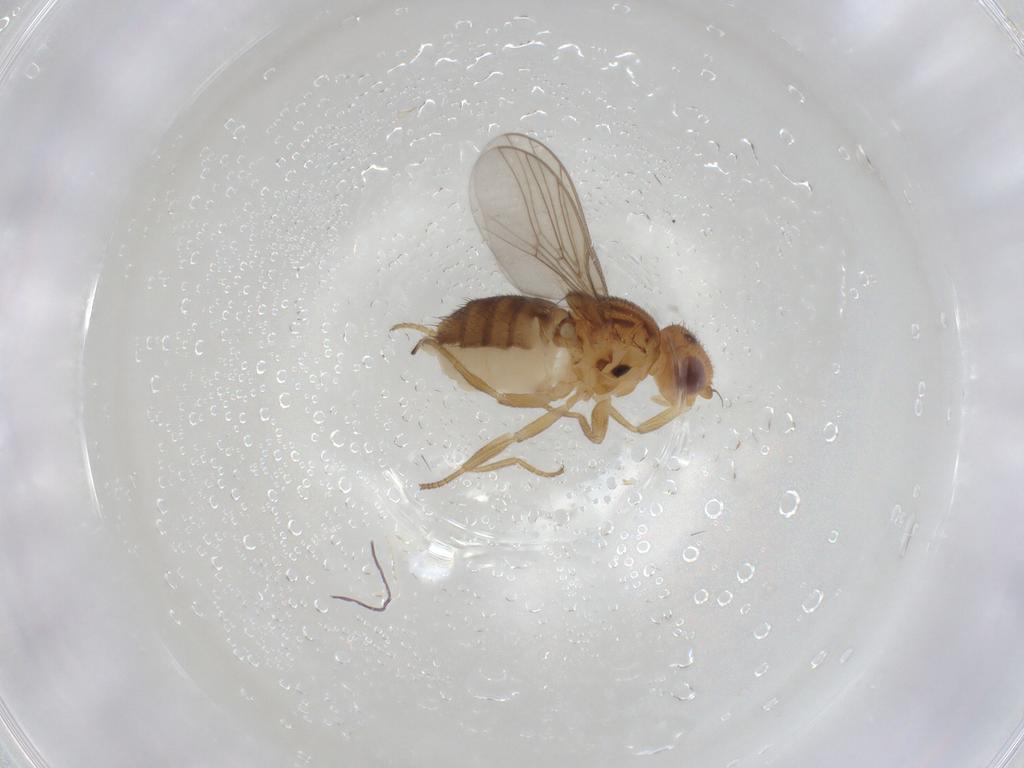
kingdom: Animalia
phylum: Arthropoda
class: Insecta
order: Diptera
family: Chloropidae
